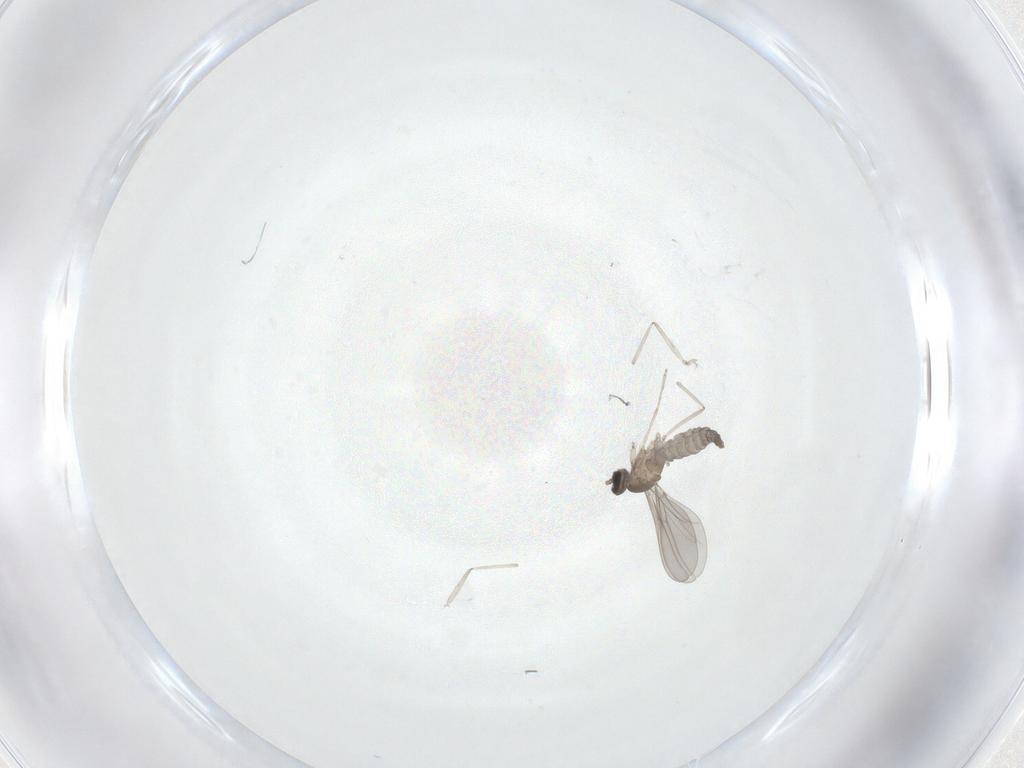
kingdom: Animalia
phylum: Arthropoda
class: Insecta
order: Diptera
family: Cecidomyiidae
